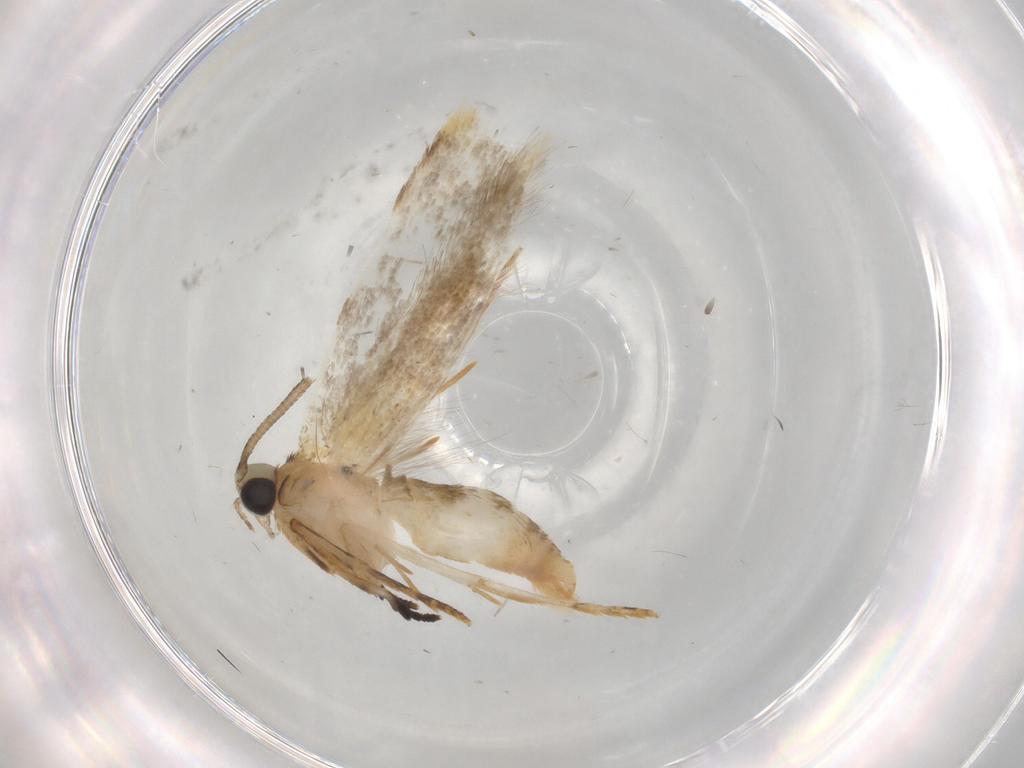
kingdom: Animalia
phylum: Arthropoda
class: Insecta
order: Lepidoptera
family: Tineidae
